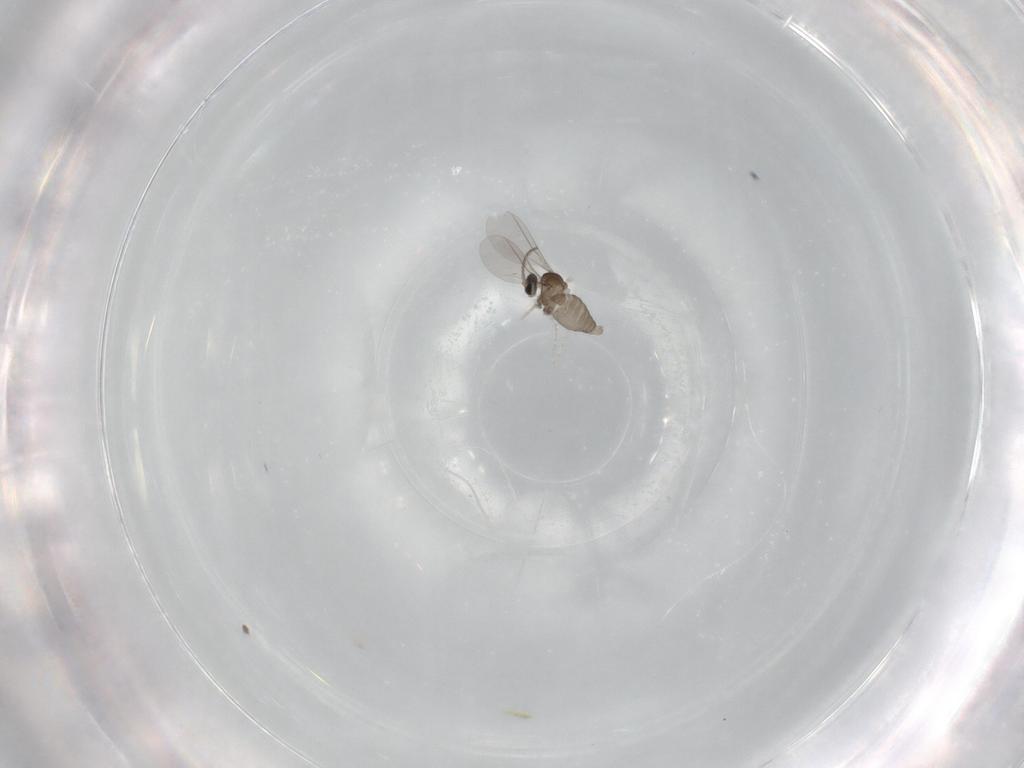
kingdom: Animalia
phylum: Arthropoda
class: Insecta
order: Diptera
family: Cecidomyiidae
